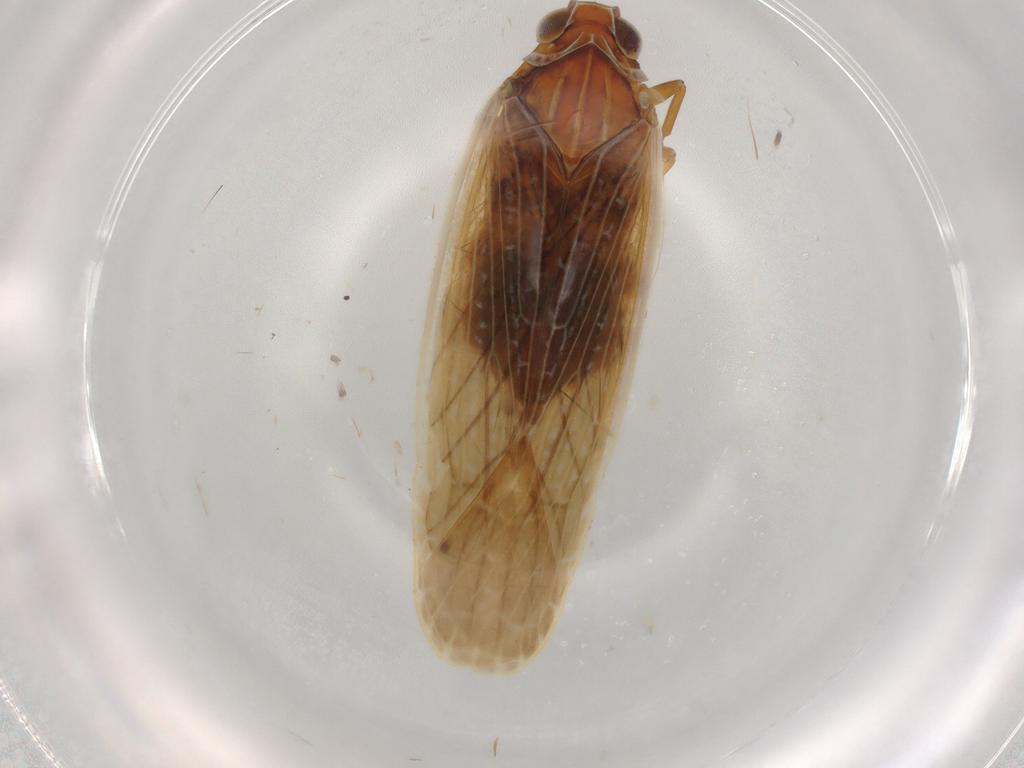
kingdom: Animalia
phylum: Arthropoda
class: Insecta
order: Hemiptera
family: Achilidae
